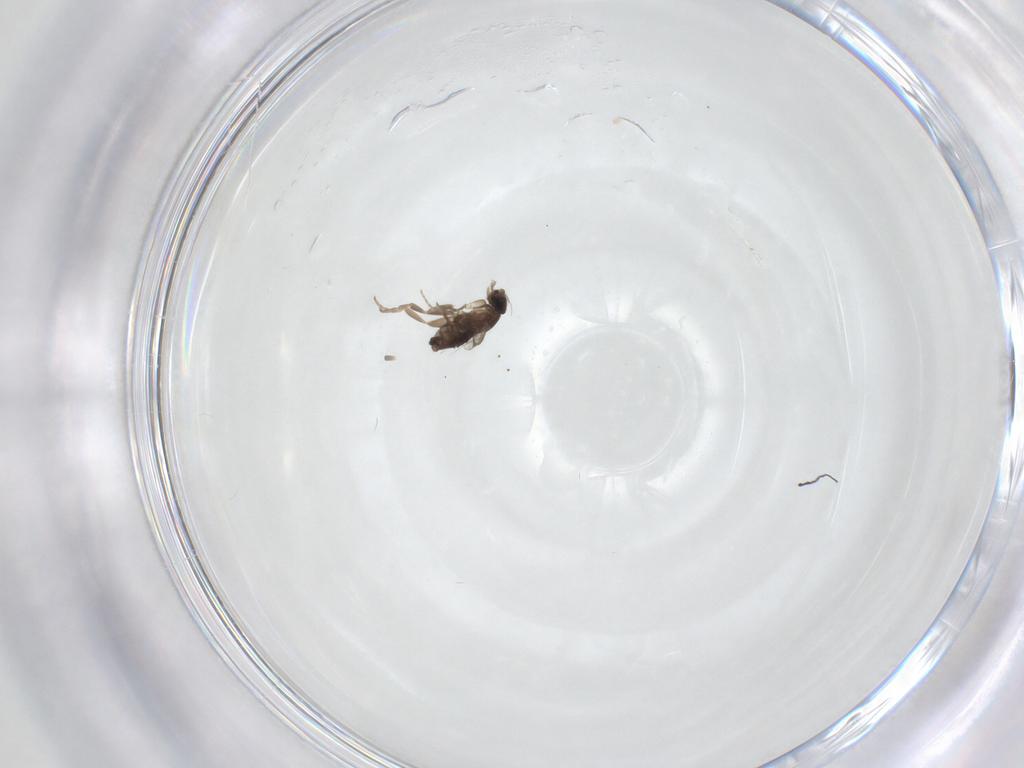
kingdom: Animalia
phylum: Arthropoda
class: Insecta
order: Diptera
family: Phoridae
